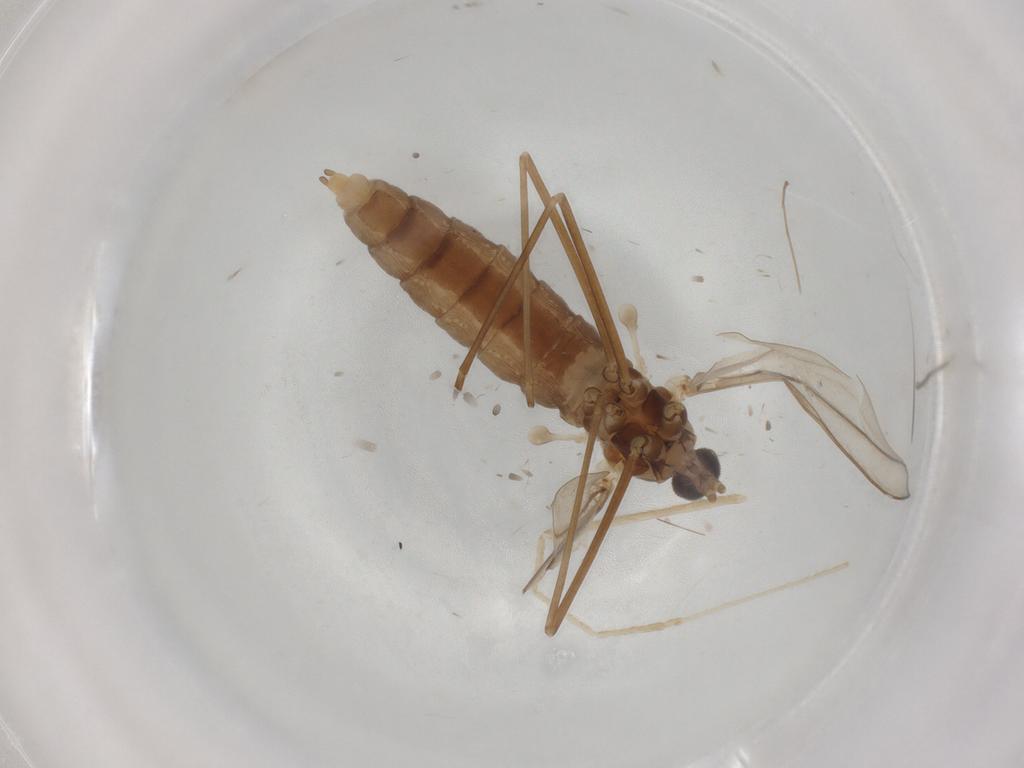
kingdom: Animalia
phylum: Arthropoda
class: Insecta
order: Diptera
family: Cecidomyiidae
